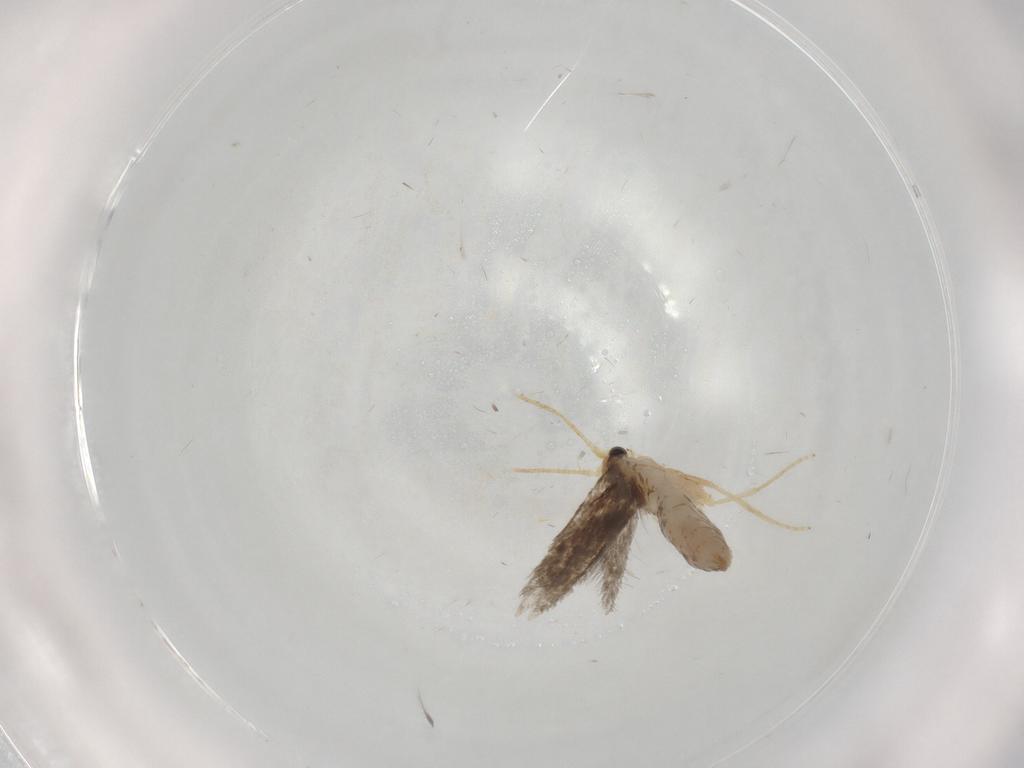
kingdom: Animalia
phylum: Arthropoda
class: Insecta
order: Lepidoptera
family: Nepticulidae
